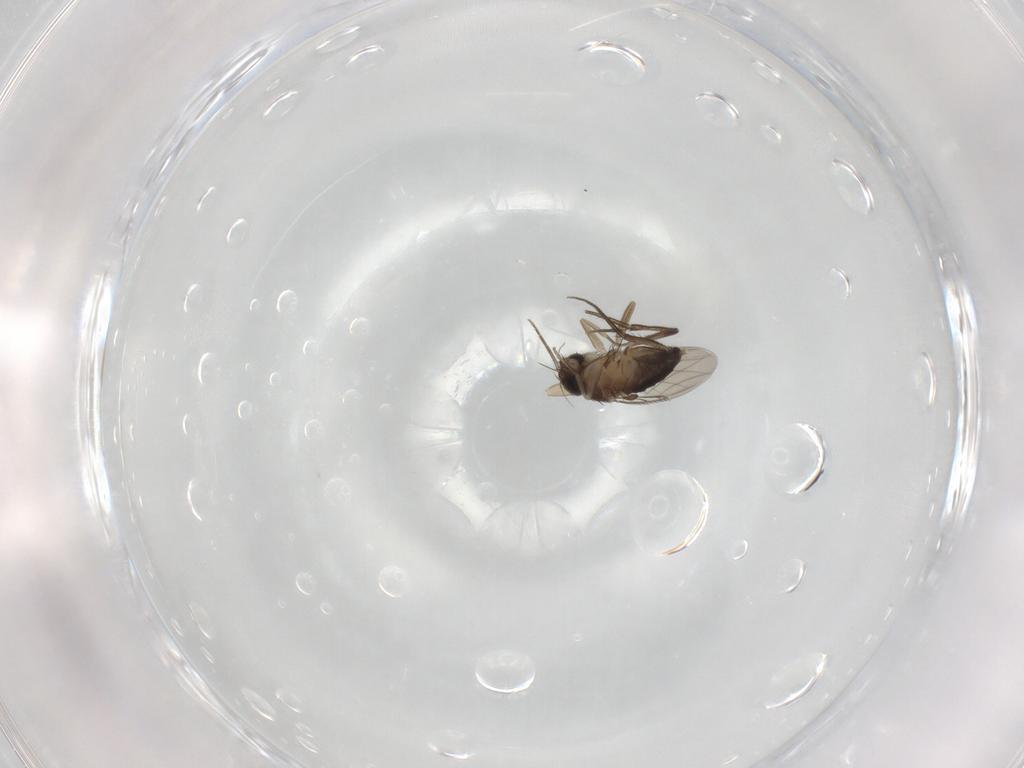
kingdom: Animalia
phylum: Arthropoda
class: Insecta
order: Diptera
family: Phoridae
